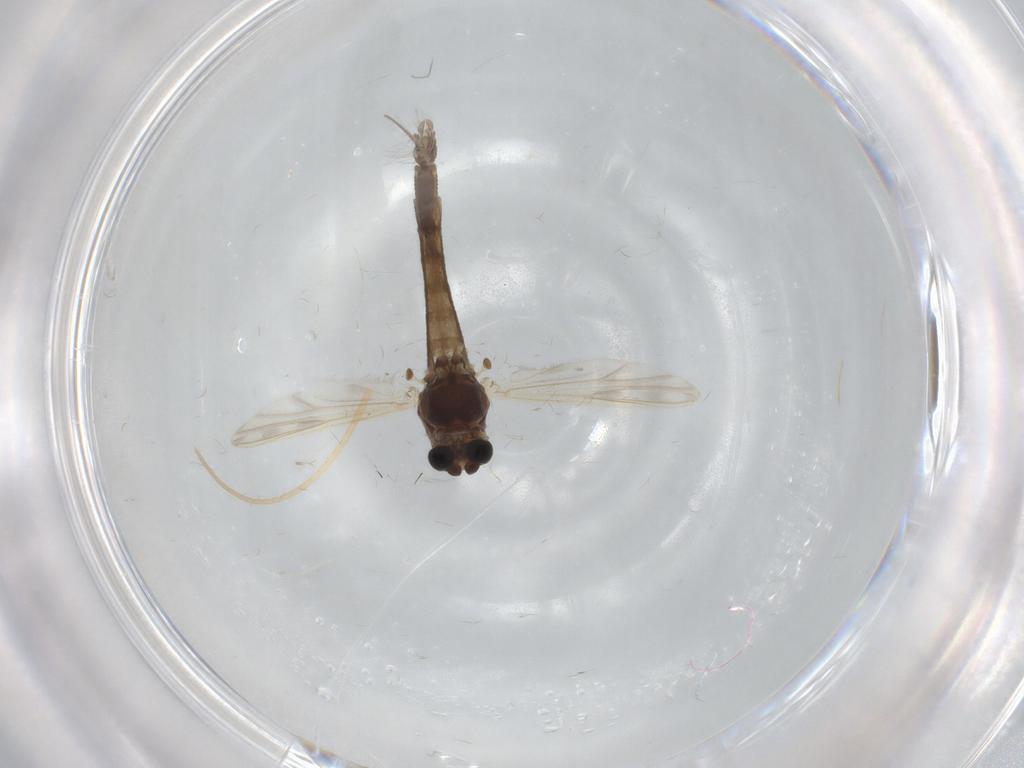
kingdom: Animalia
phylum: Arthropoda
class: Insecta
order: Diptera
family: Chironomidae
